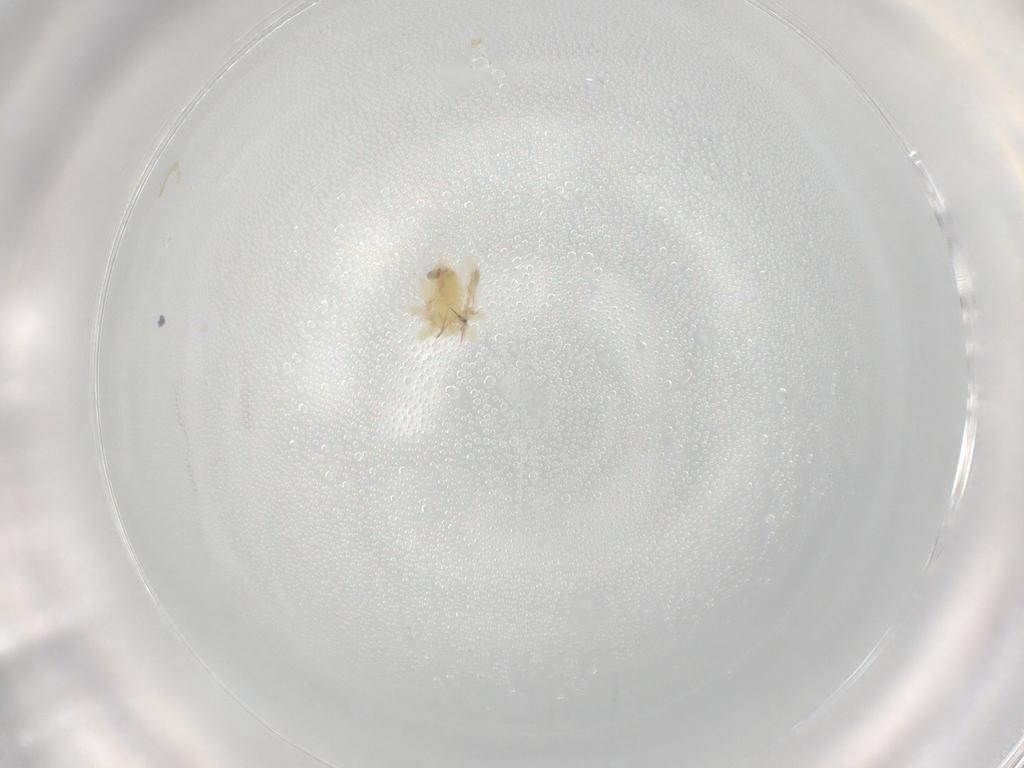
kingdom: Animalia
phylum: Arthropoda
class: Arachnida
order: Trombidiformes
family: Anystidae
